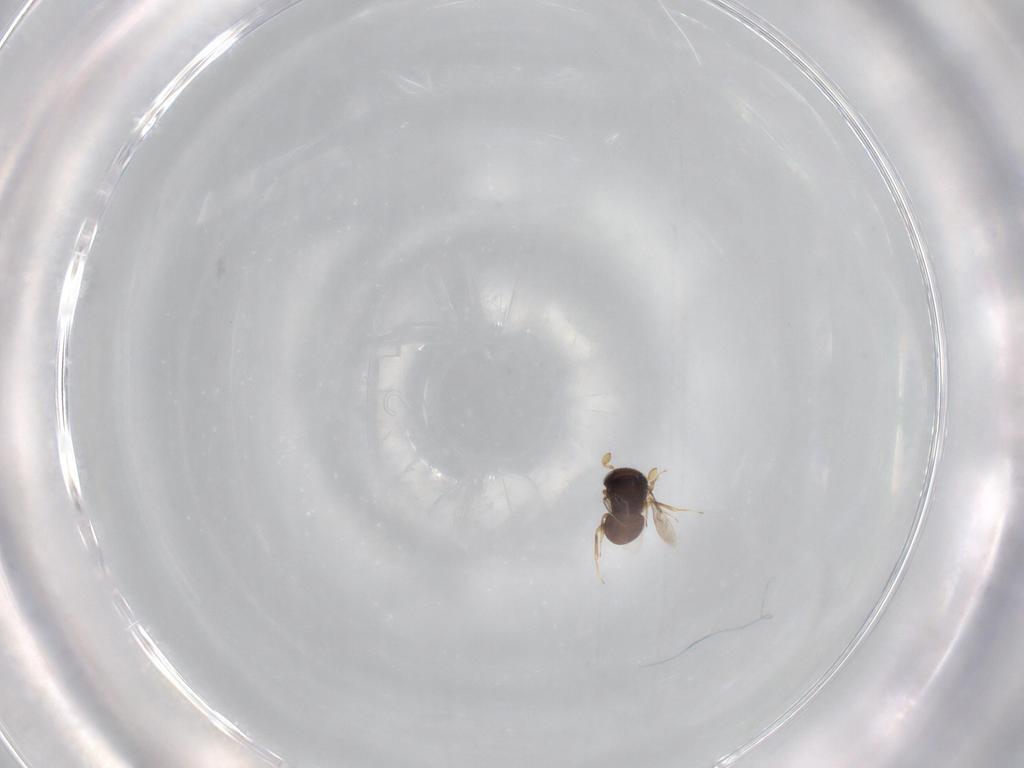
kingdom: Animalia
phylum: Arthropoda
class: Insecta
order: Hymenoptera
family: Scelionidae
